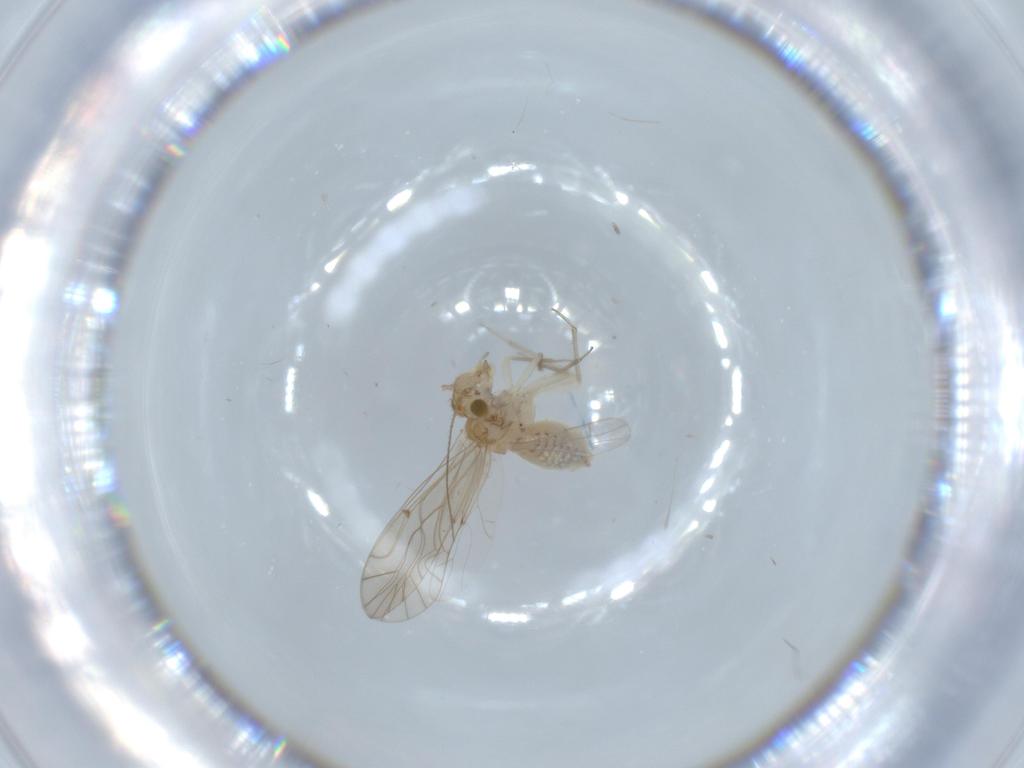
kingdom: Animalia
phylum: Arthropoda
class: Insecta
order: Psocodea
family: Lachesillidae
